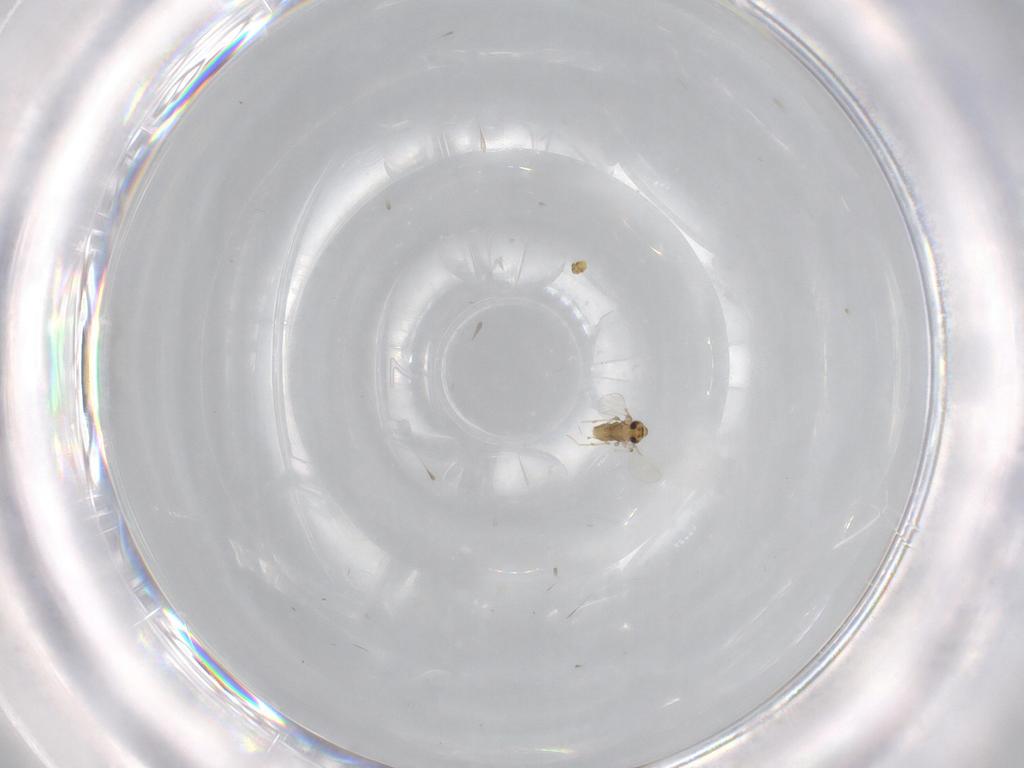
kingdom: Animalia
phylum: Arthropoda
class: Insecta
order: Diptera
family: Chironomidae
